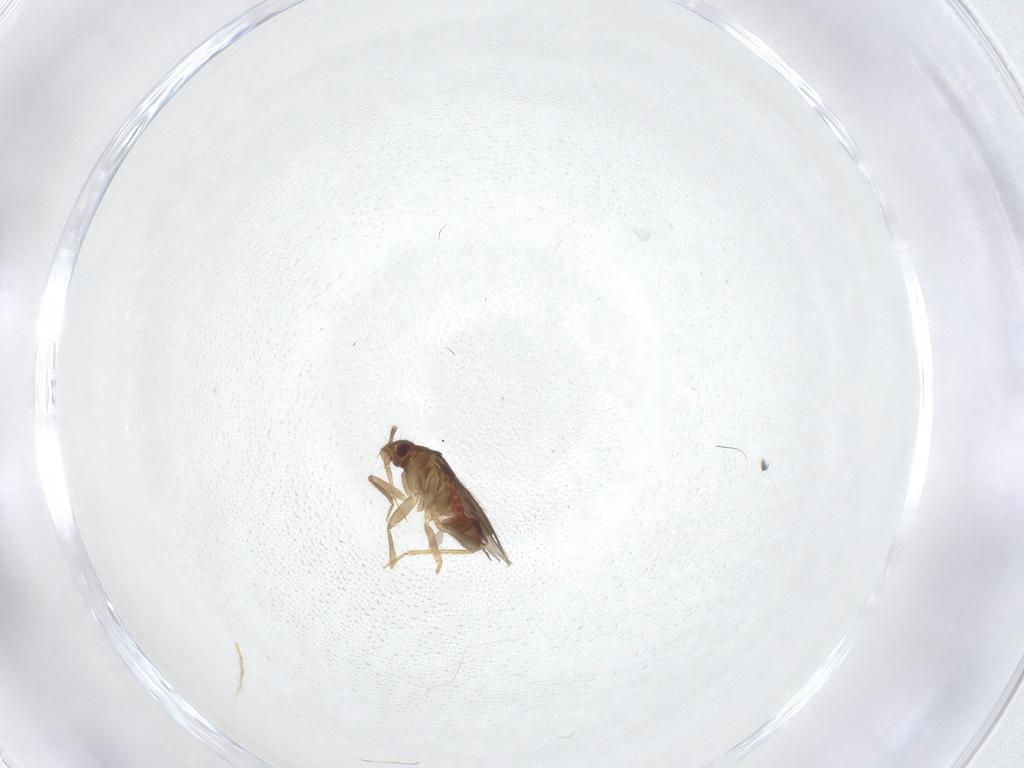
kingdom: Animalia
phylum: Arthropoda
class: Insecta
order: Hemiptera
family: Ceratocombidae
